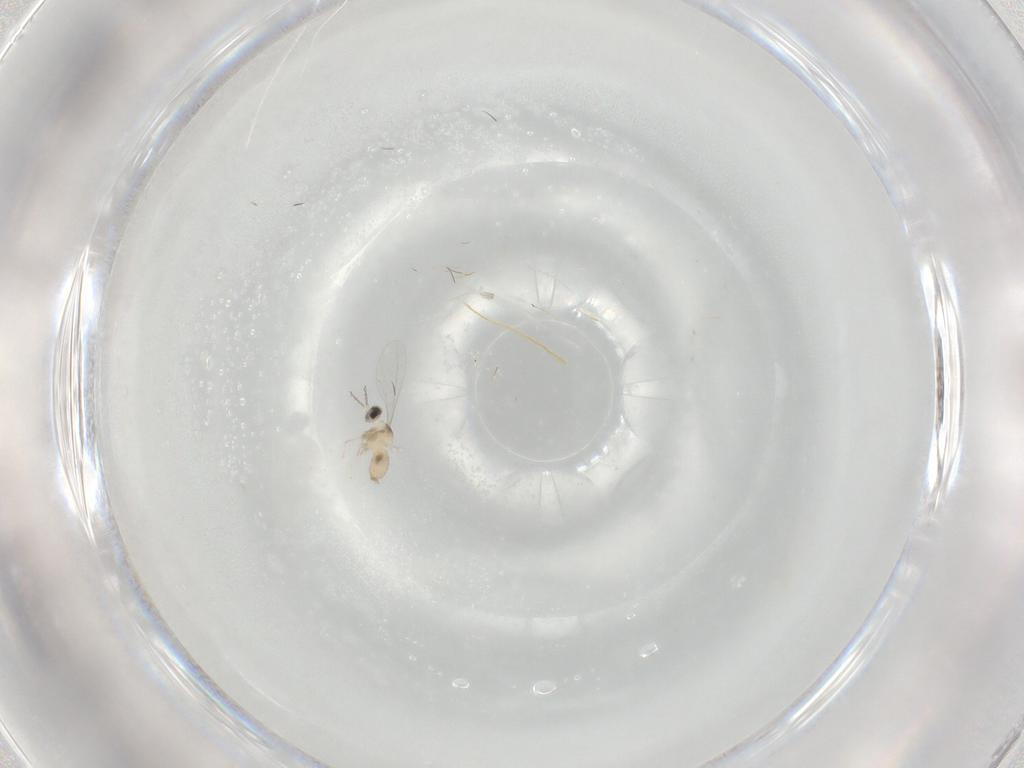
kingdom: Animalia
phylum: Arthropoda
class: Insecta
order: Diptera
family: Cecidomyiidae
